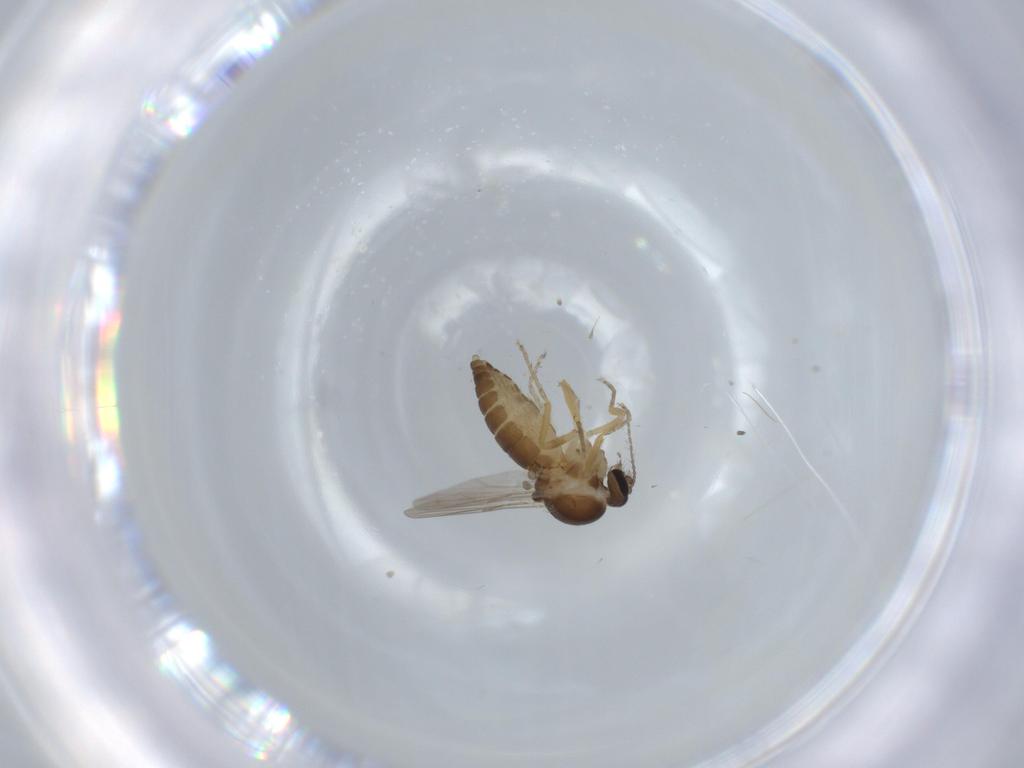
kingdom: Animalia
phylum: Arthropoda
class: Insecta
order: Diptera
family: Ceratopogonidae
